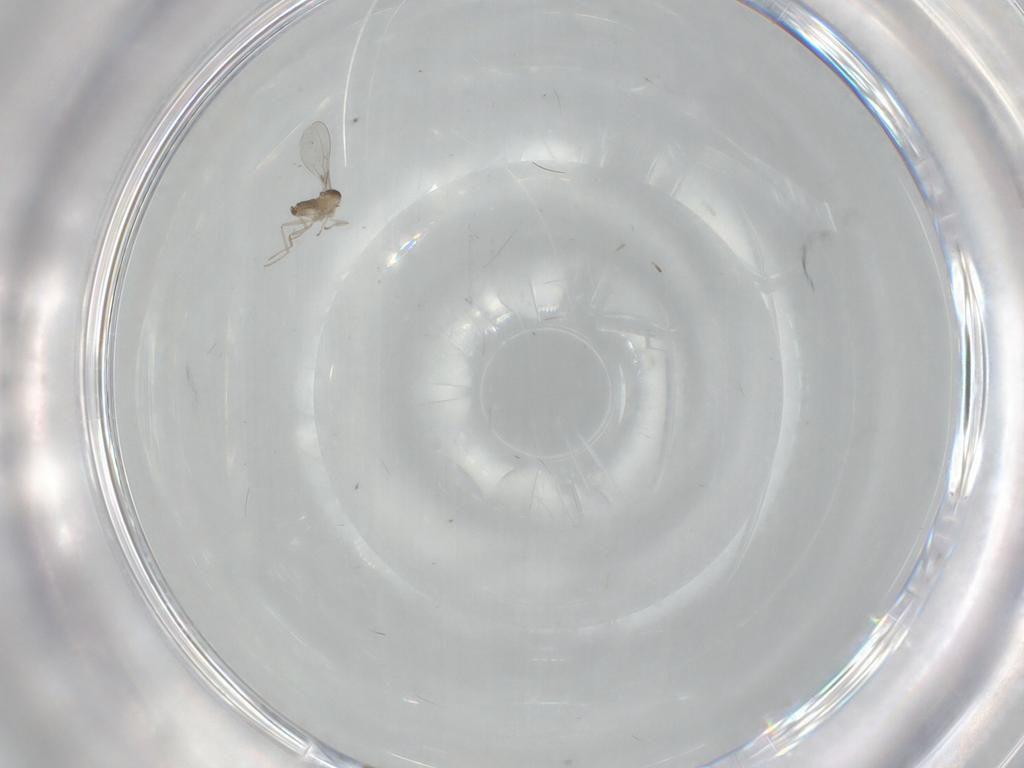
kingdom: Animalia
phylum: Arthropoda
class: Insecta
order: Diptera
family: Cecidomyiidae
